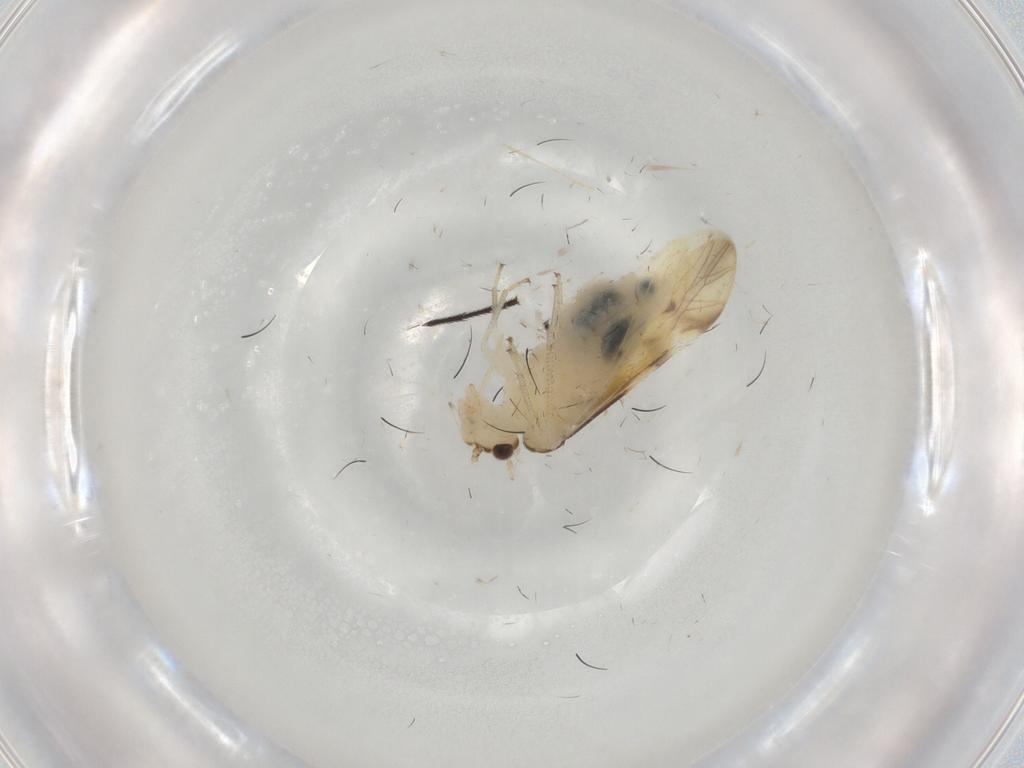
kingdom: Animalia
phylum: Arthropoda
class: Insecta
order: Psocodea
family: Caeciliusidae
